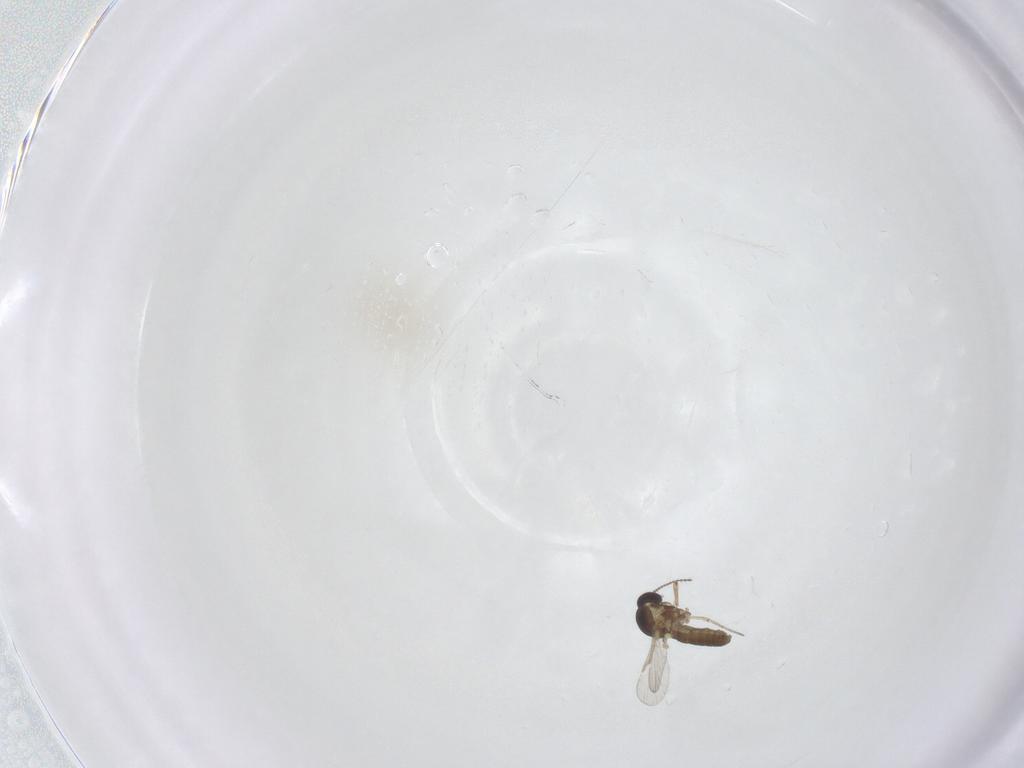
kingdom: Animalia
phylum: Arthropoda
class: Insecta
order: Diptera
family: Ceratopogonidae
